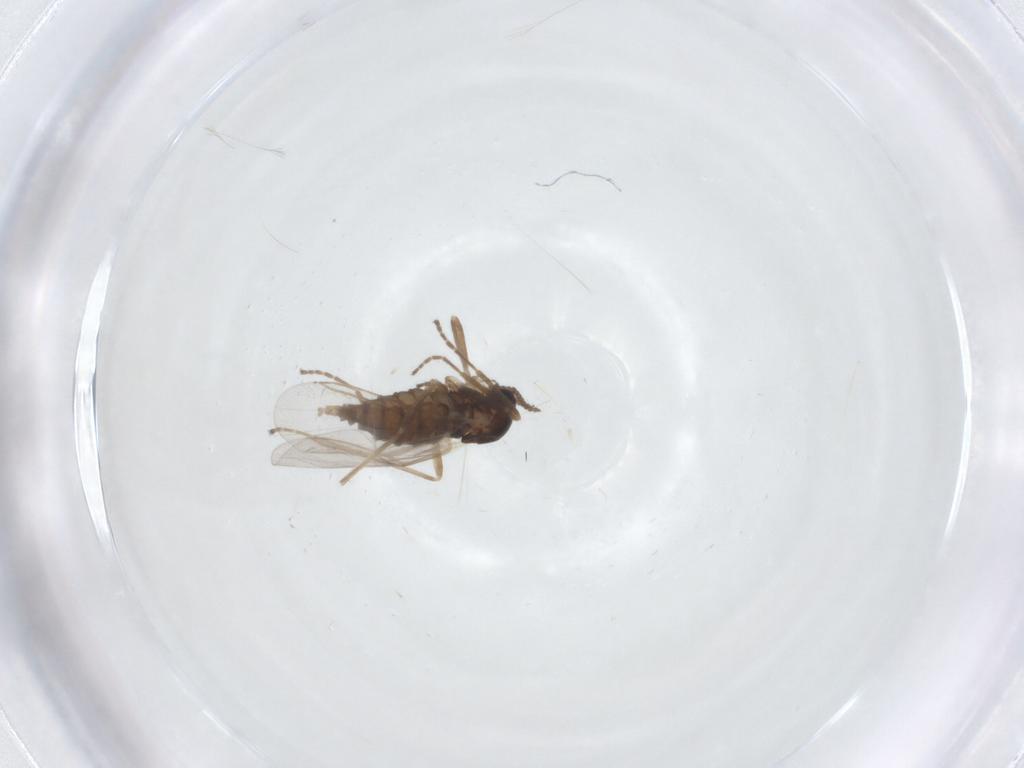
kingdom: Animalia
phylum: Arthropoda
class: Insecta
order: Diptera
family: Cecidomyiidae
